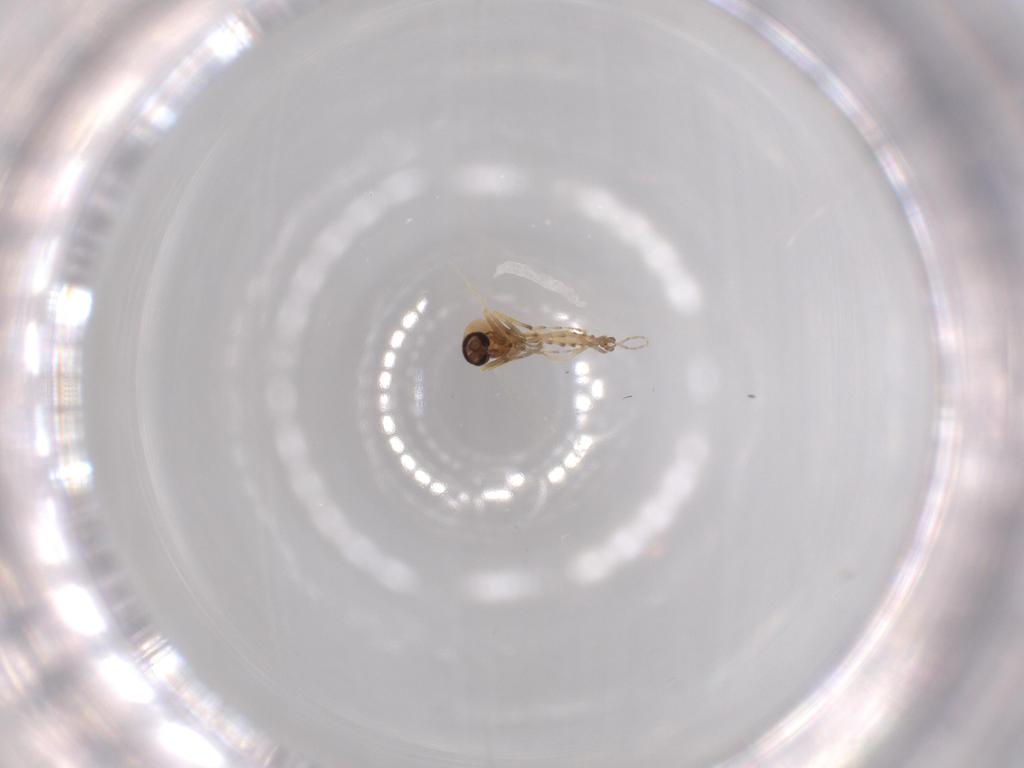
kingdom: Animalia
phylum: Arthropoda
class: Insecta
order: Diptera
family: Ceratopogonidae
